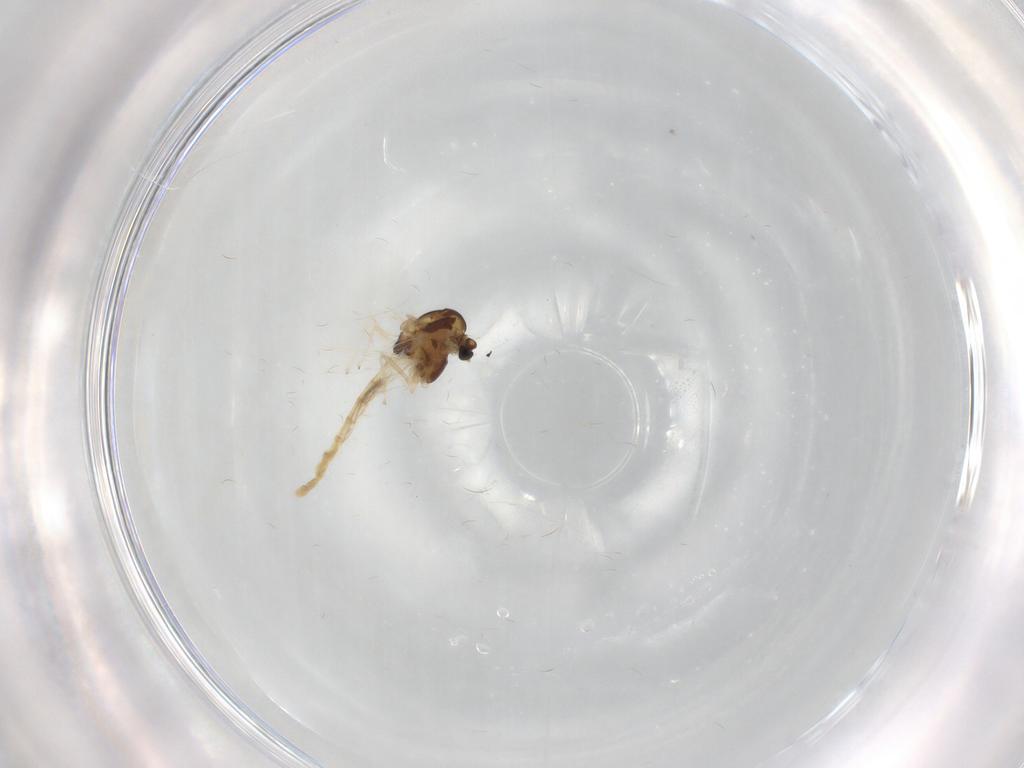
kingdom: Animalia
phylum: Arthropoda
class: Insecta
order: Diptera
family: Chironomidae
